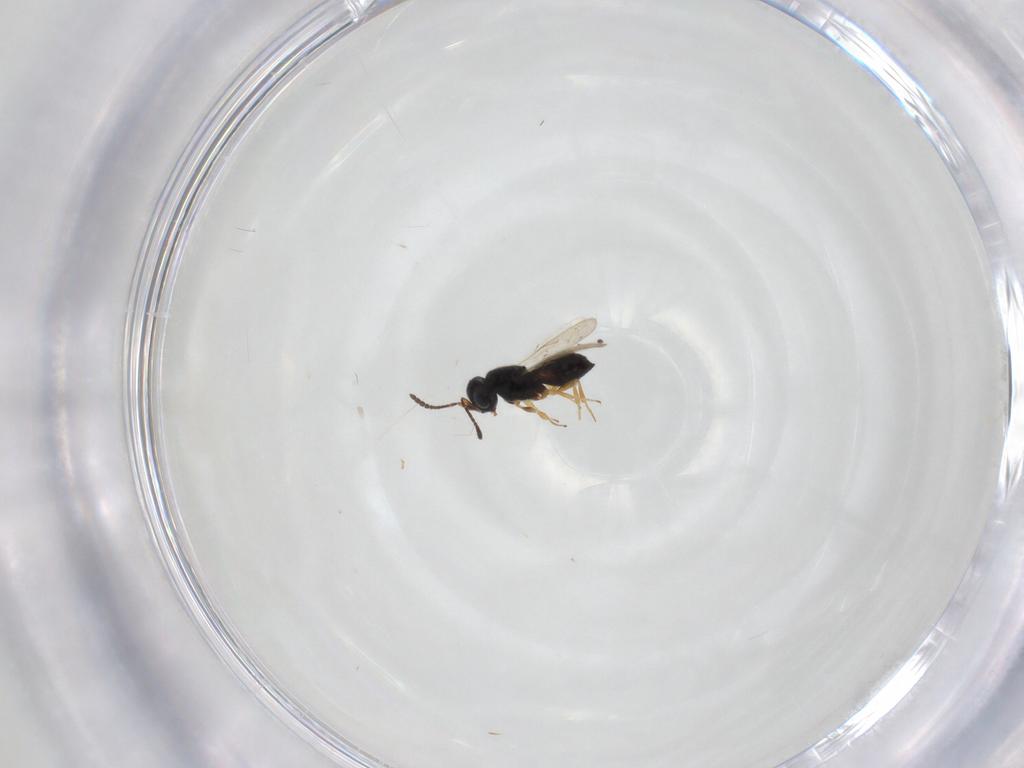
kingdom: Animalia
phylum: Arthropoda
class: Insecta
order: Hymenoptera
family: Scelionidae
